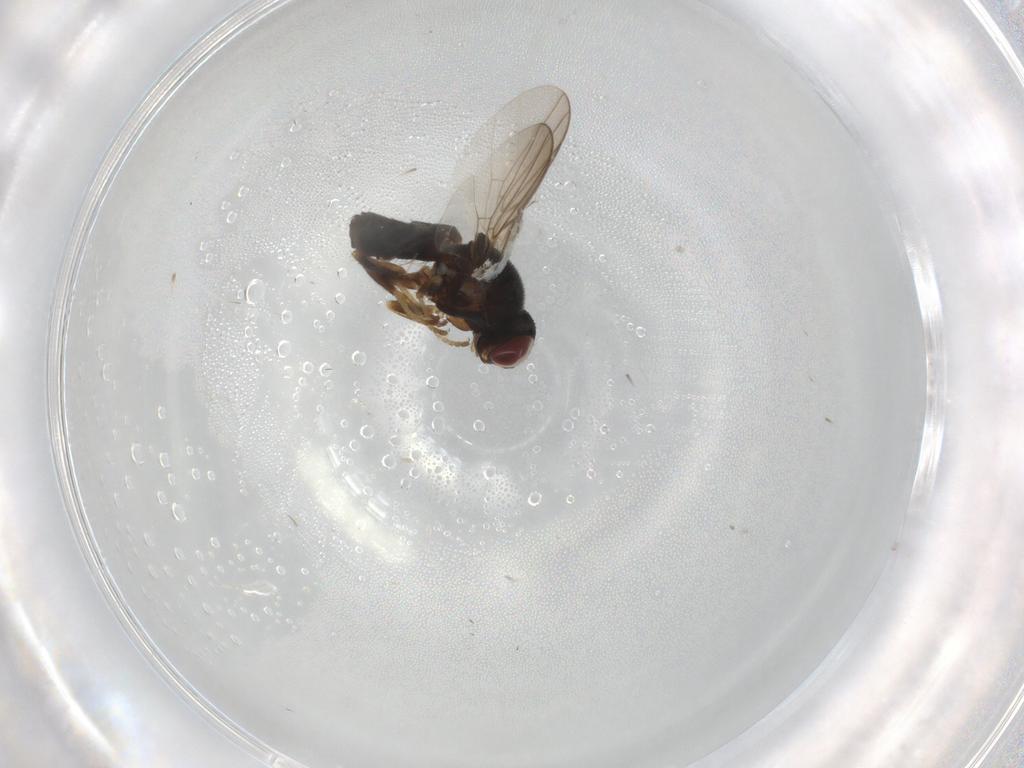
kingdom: Animalia
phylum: Arthropoda
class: Insecta
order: Diptera
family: Chloropidae
